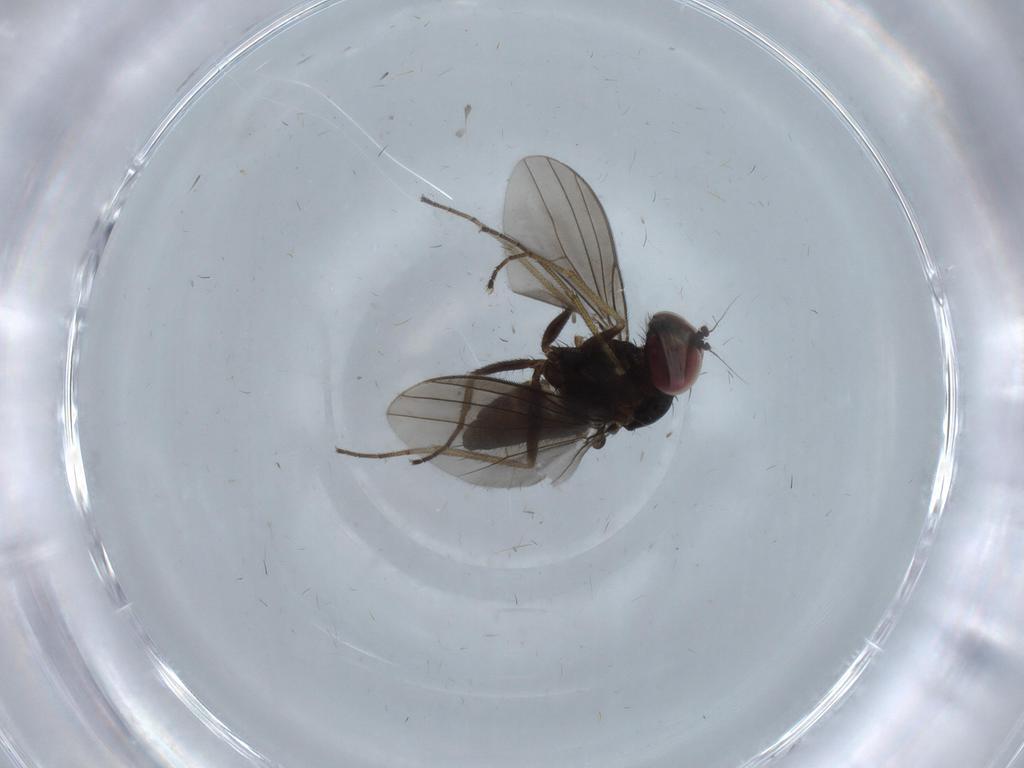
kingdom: Animalia
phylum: Arthropoda
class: Insecta
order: Diptera
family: Dolichopodidae
